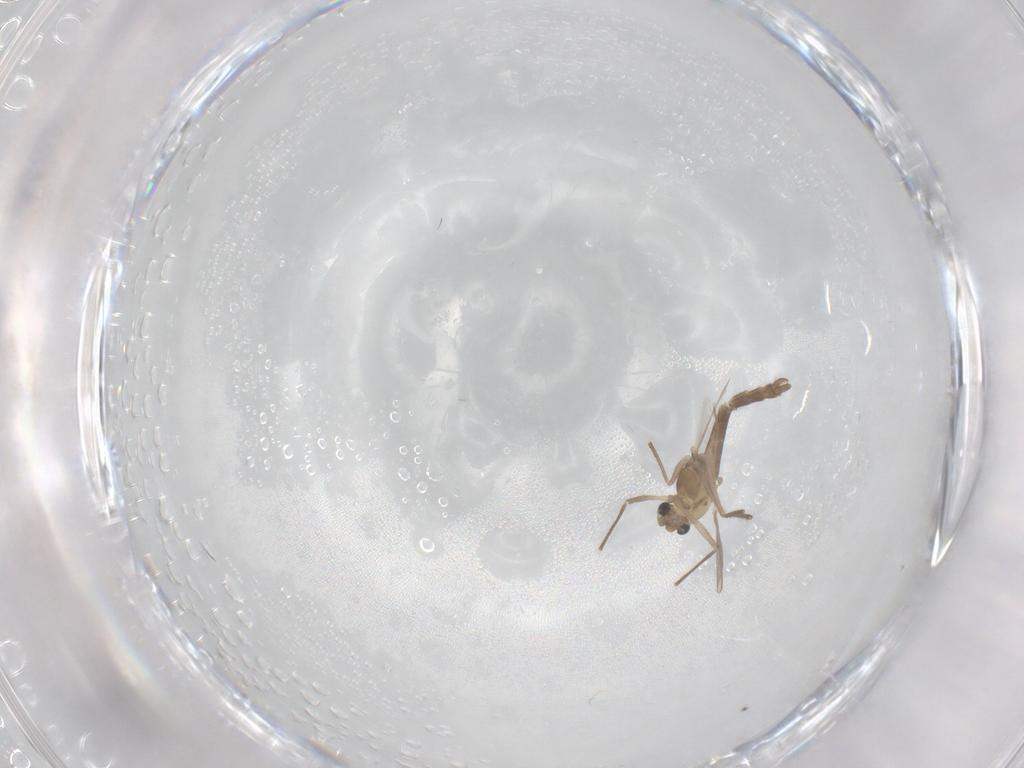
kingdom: Animalia
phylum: Arthropoda
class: Insecta
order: Diptera
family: Chironomidae
